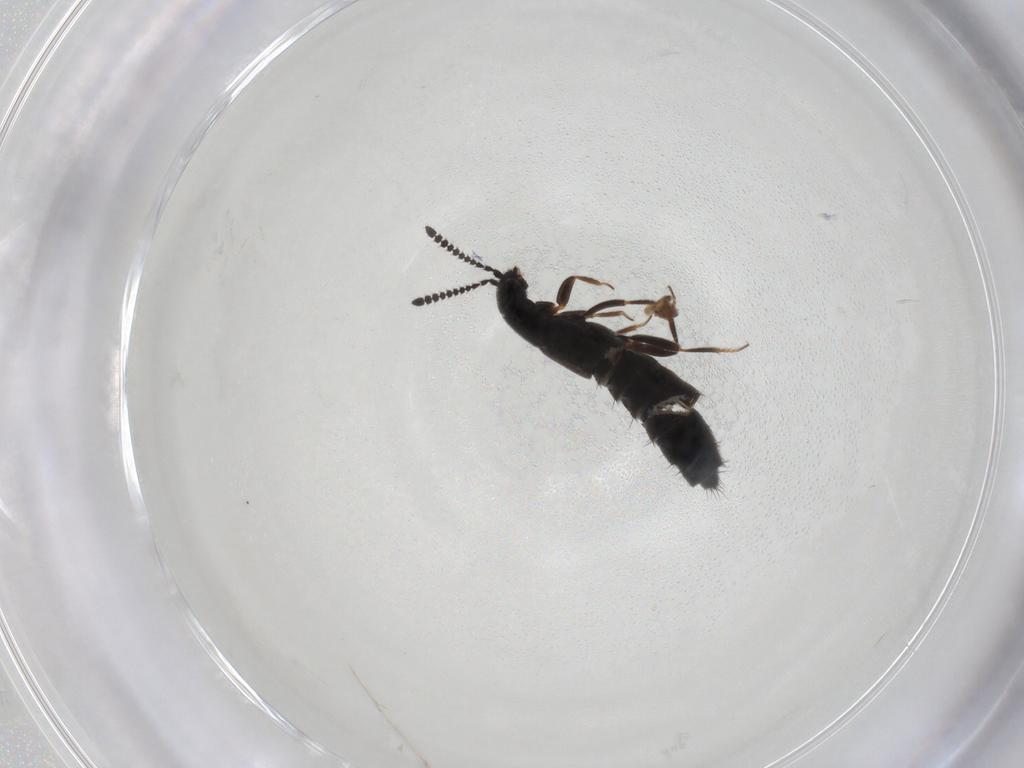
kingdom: Animalia
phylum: Arthropoda
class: Insecta
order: Coleoptera
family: Staphylinidae
